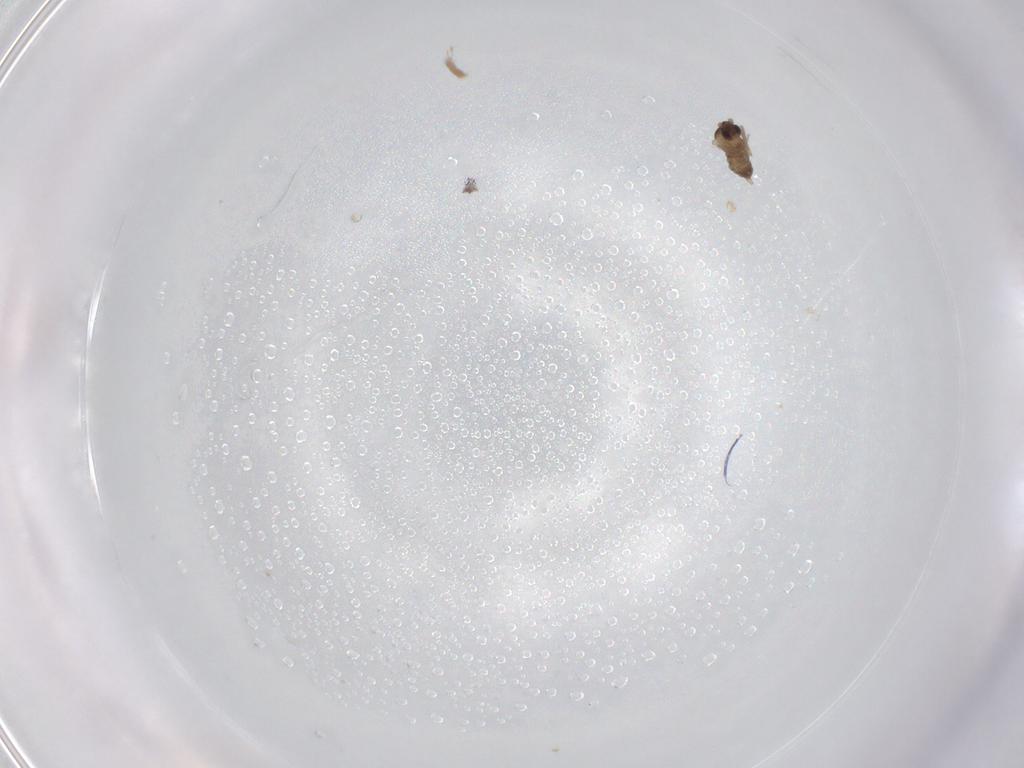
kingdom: Animalia
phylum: Arthropoda
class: Insecta
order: Diptera
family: Cecidomyiidae
